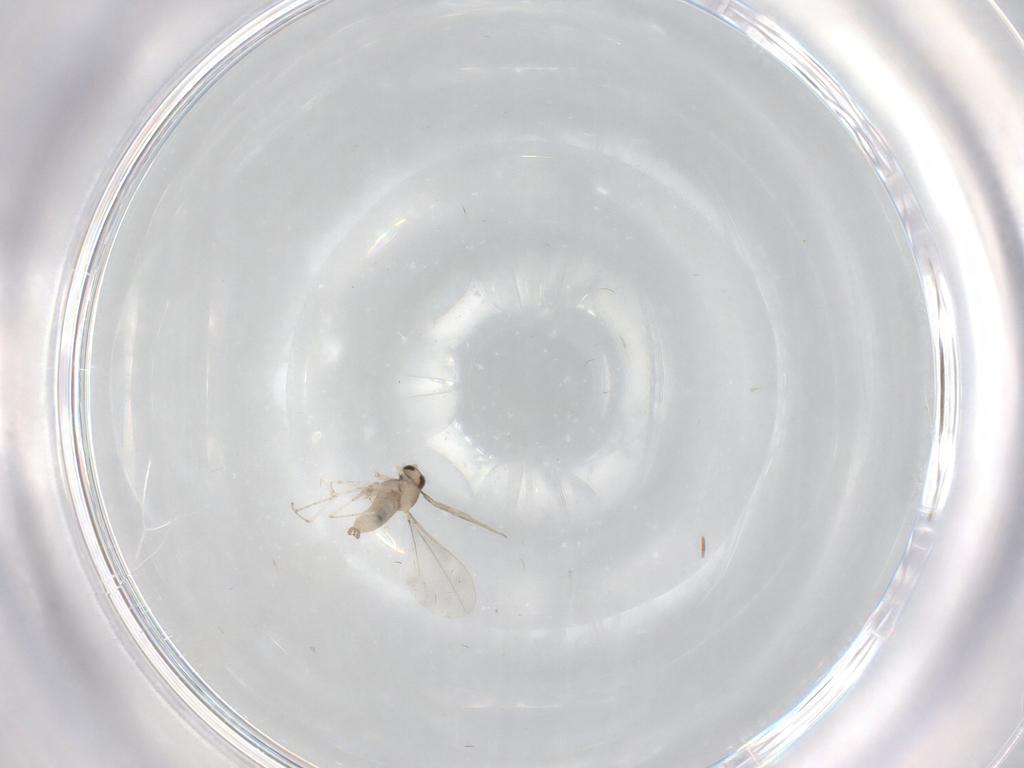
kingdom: Animalia
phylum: Arthropoda
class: Insecta
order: Diptera
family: Cecidomyiidae
